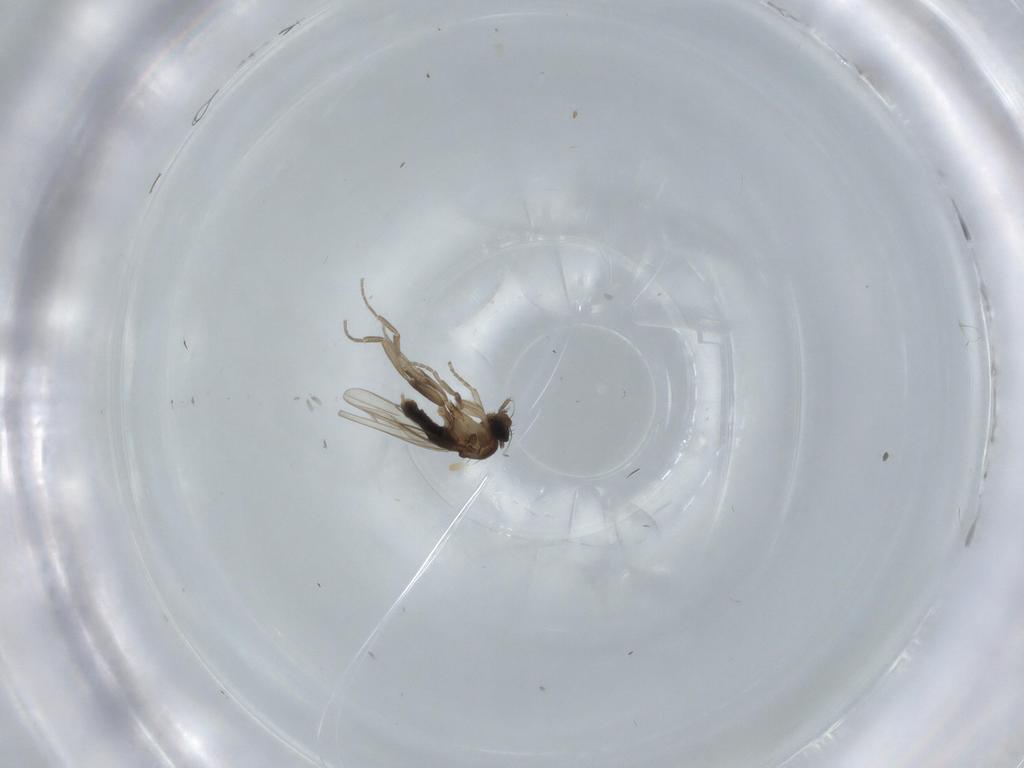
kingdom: Animalia
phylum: Arthropoda
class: Insecta
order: Diptera
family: Phoridae
